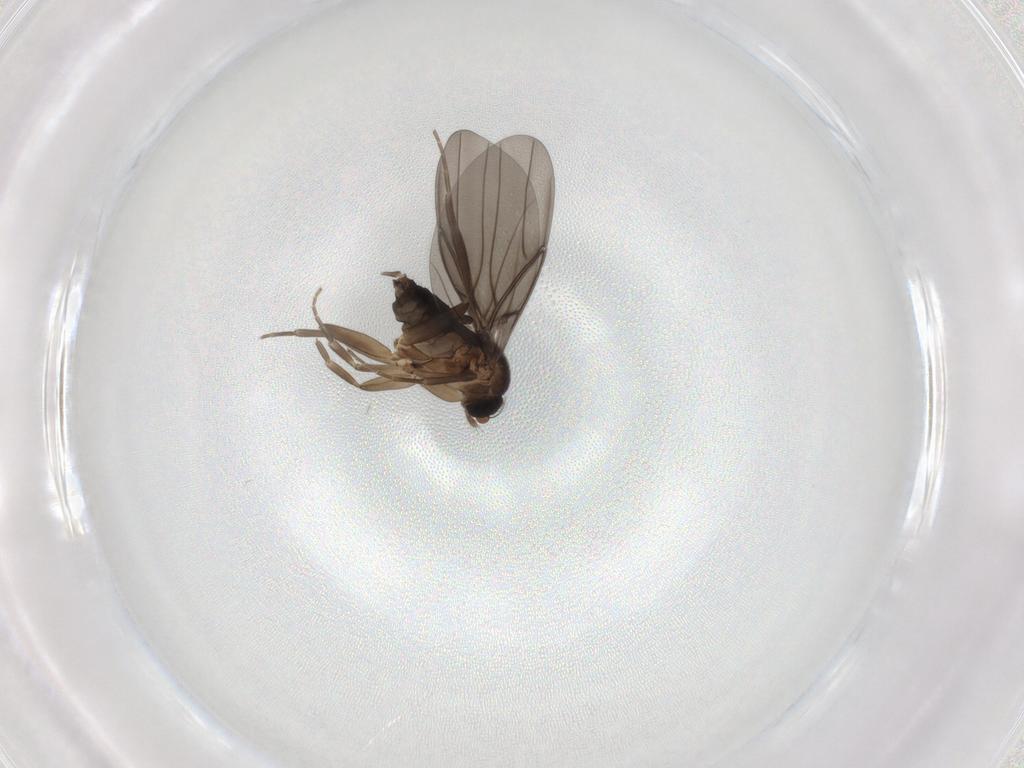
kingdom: Animalia
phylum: Arthropoda
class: Insecta
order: Diptera
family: Phoridae
